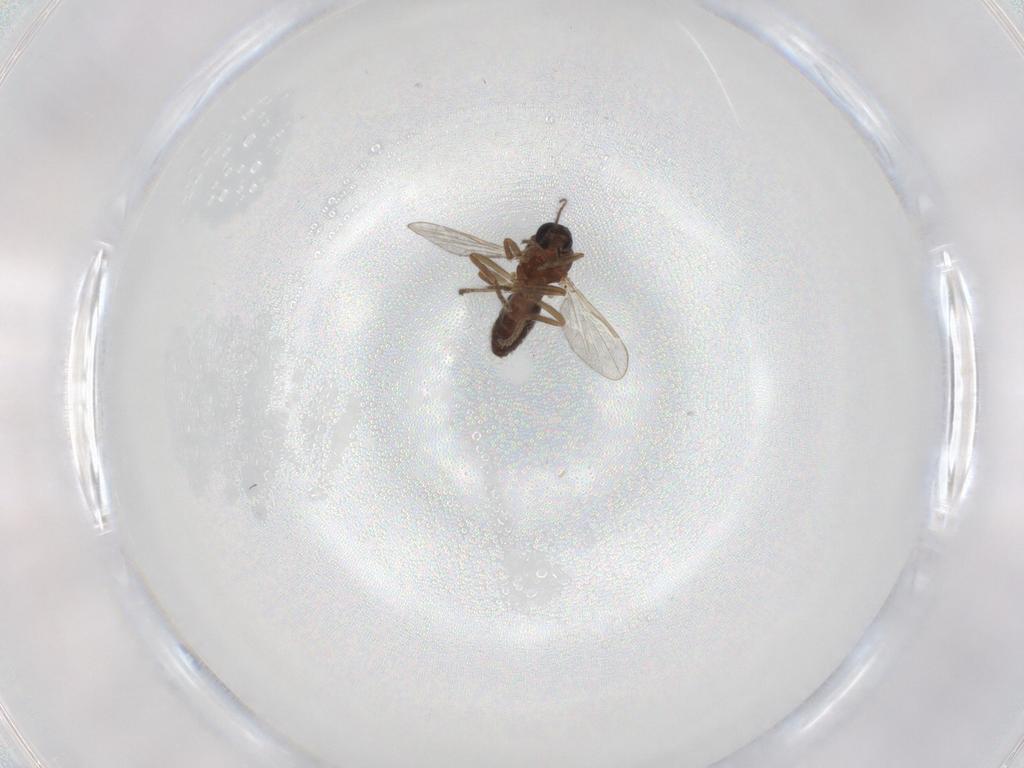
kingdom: Animalia
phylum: Arthropoda
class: Insecta
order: Diptera
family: Ceratopogonidae
